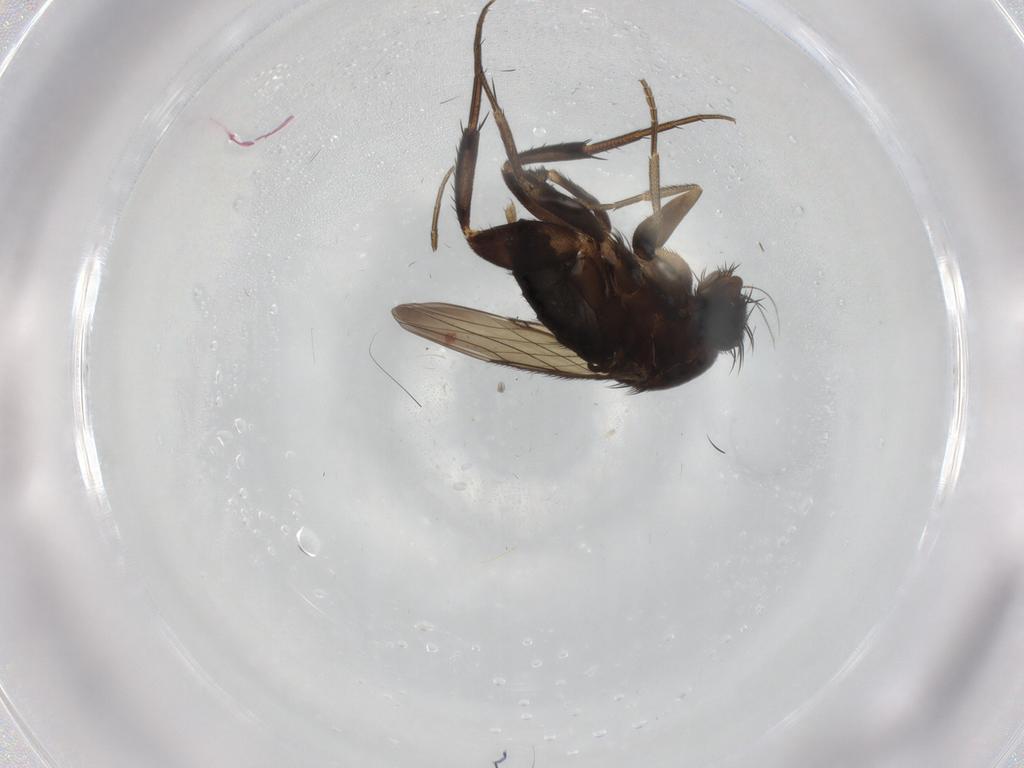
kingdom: Animalia
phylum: Arthropoda
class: Insecta
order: Diptera
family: Phoridae
